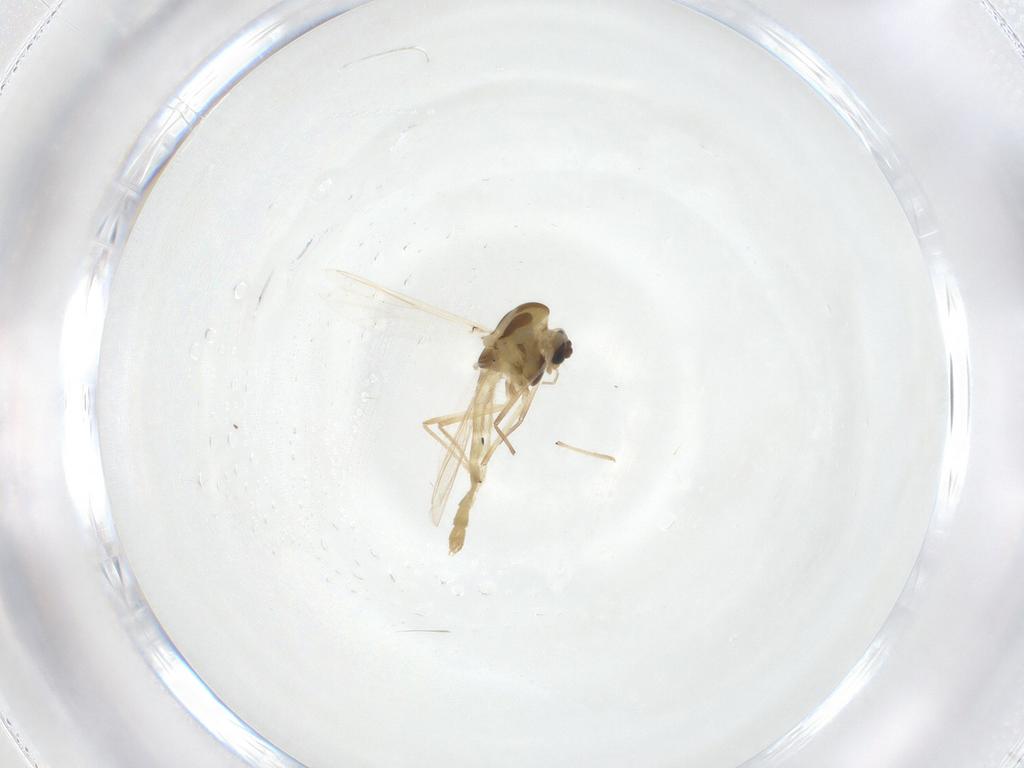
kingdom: Animalia
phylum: Arthropoda
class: Insecta
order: Diptera
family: Chironomidae
